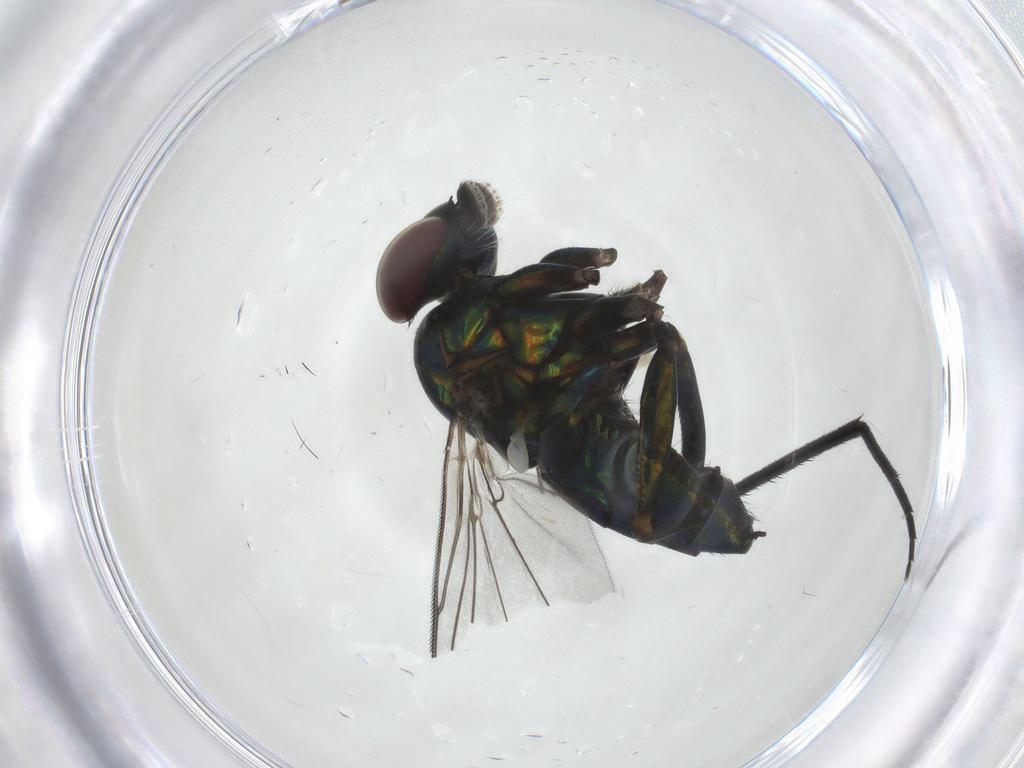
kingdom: Animalia
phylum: Arthropoda
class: Insecta
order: Diptera
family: Dolichopodidae
